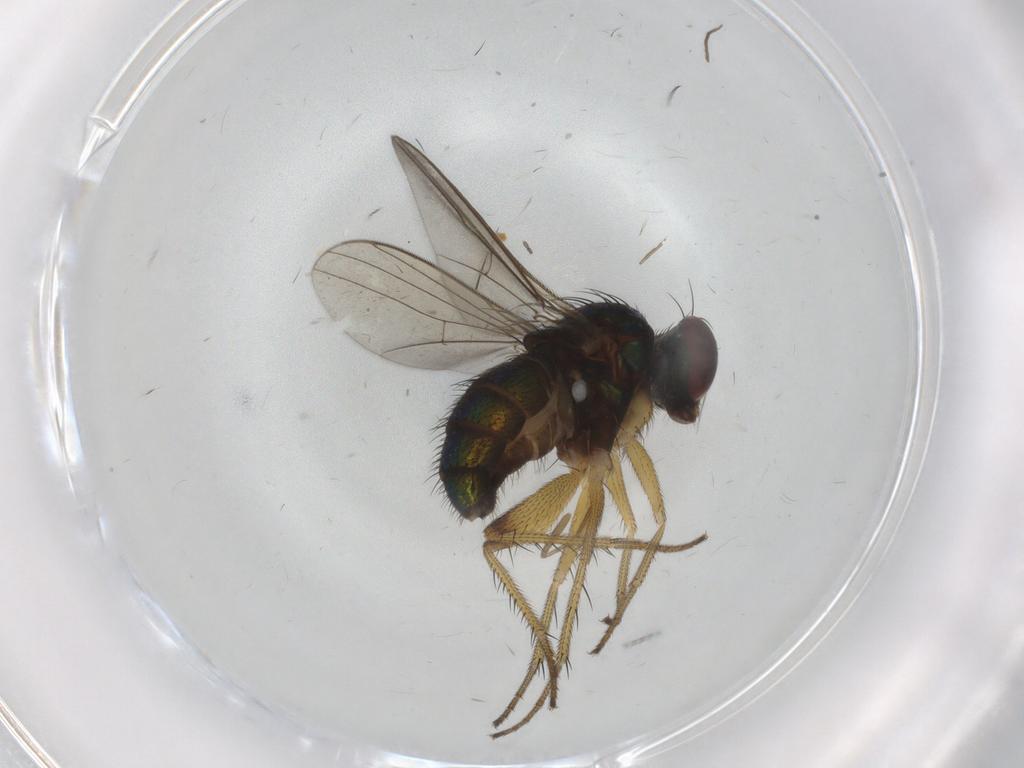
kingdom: Animalia
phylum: Arthropoda
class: Insecta
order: Diptera
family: Dolichopodidae
